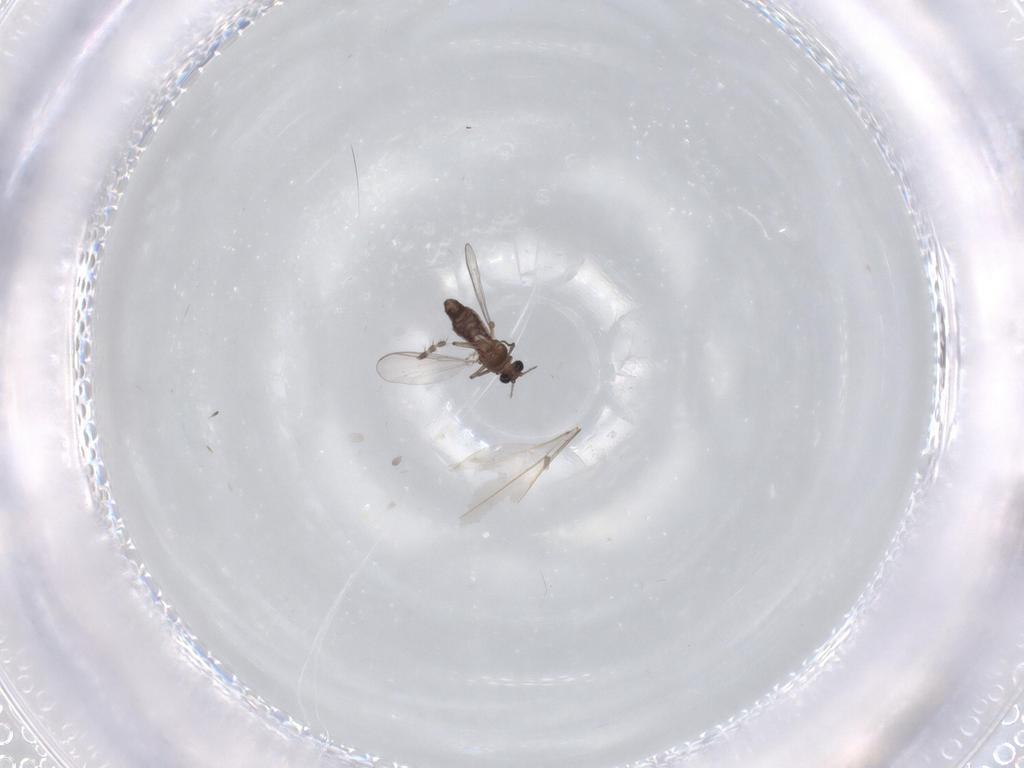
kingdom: Animalia
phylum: Arthropoda
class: Insecta
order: Diptera
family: Chironomidae
